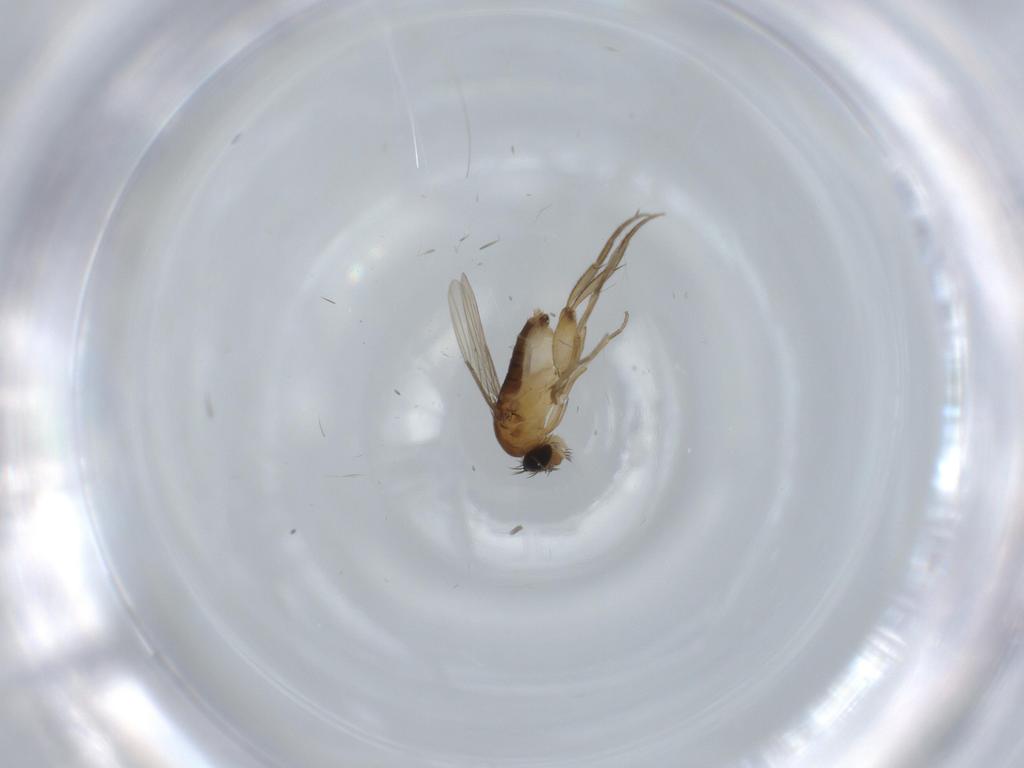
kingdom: Animalia
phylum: Arthropoda
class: Insecta
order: Diptera
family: Phoridae
